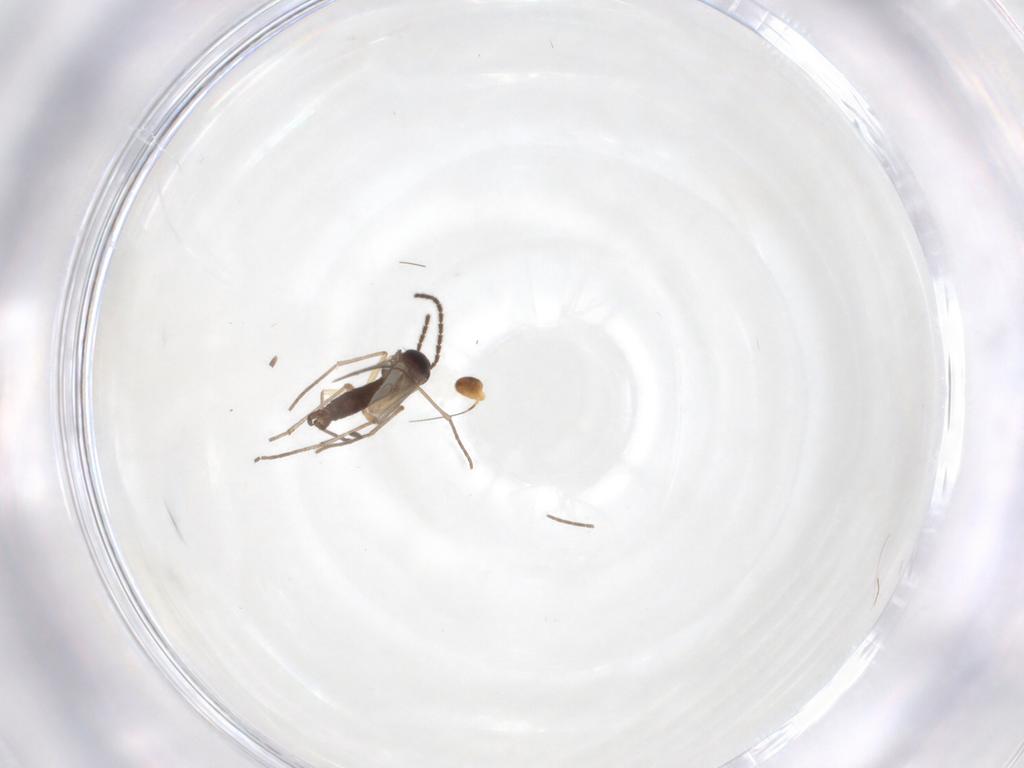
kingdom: Animalia
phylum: Arthropoda
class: Insecta
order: Diptera
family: Sciaridae
